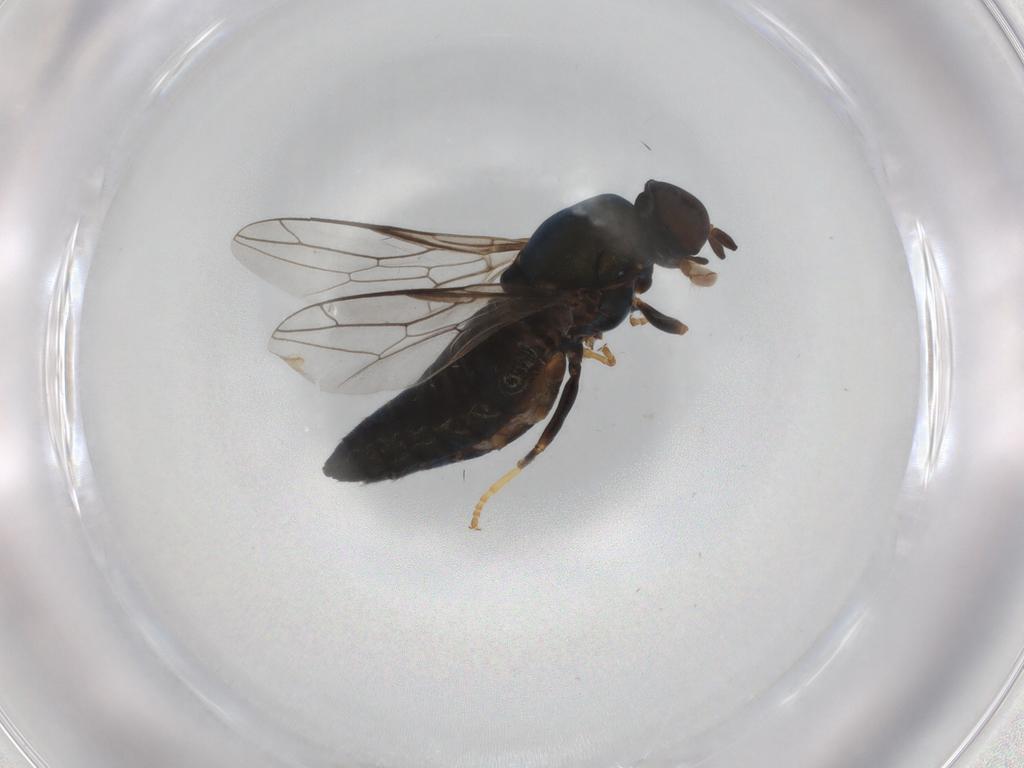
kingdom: Animalia
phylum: Arthropoda
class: Insecta
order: Diptera
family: Scenopinidae
